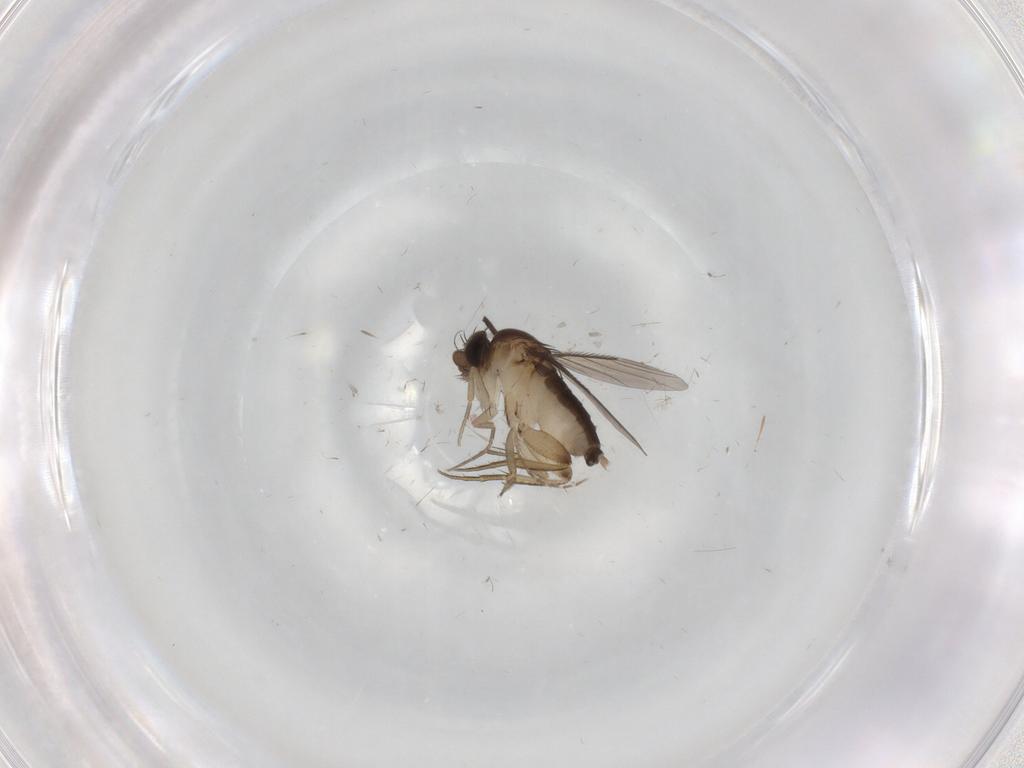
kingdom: Animalia
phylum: Arthropoda
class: Insecta
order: Diptera
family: Phoridae
